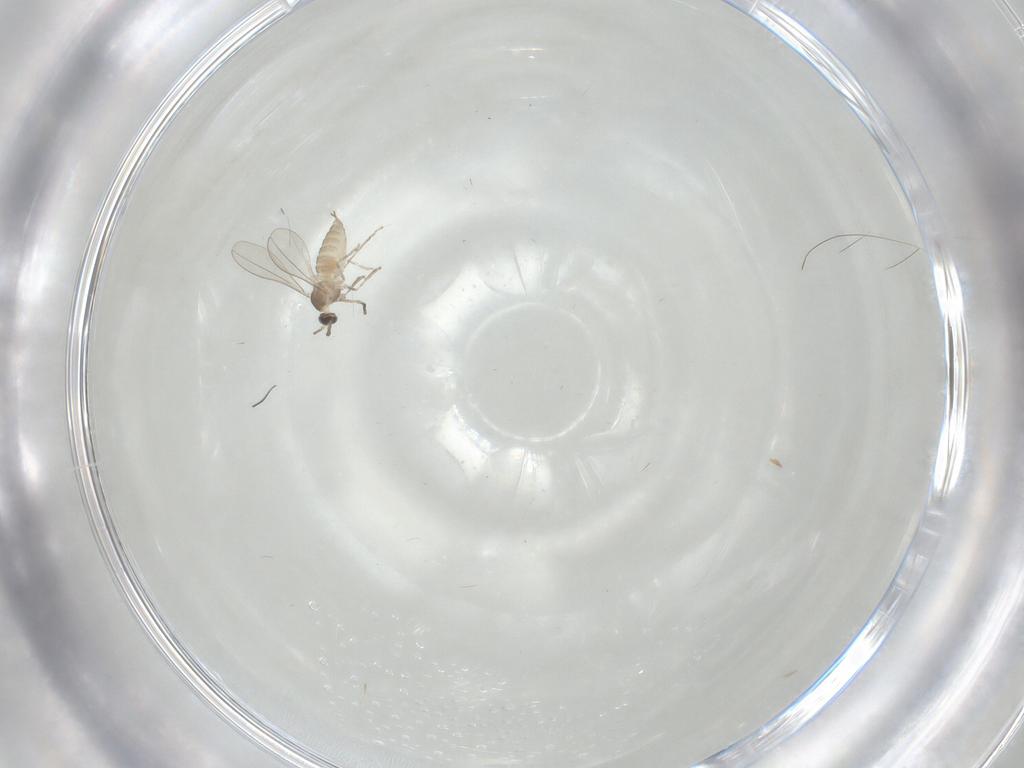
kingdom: Animalia
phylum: Arthropoda
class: Insecta
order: Diptera
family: Cecidomyiidae
